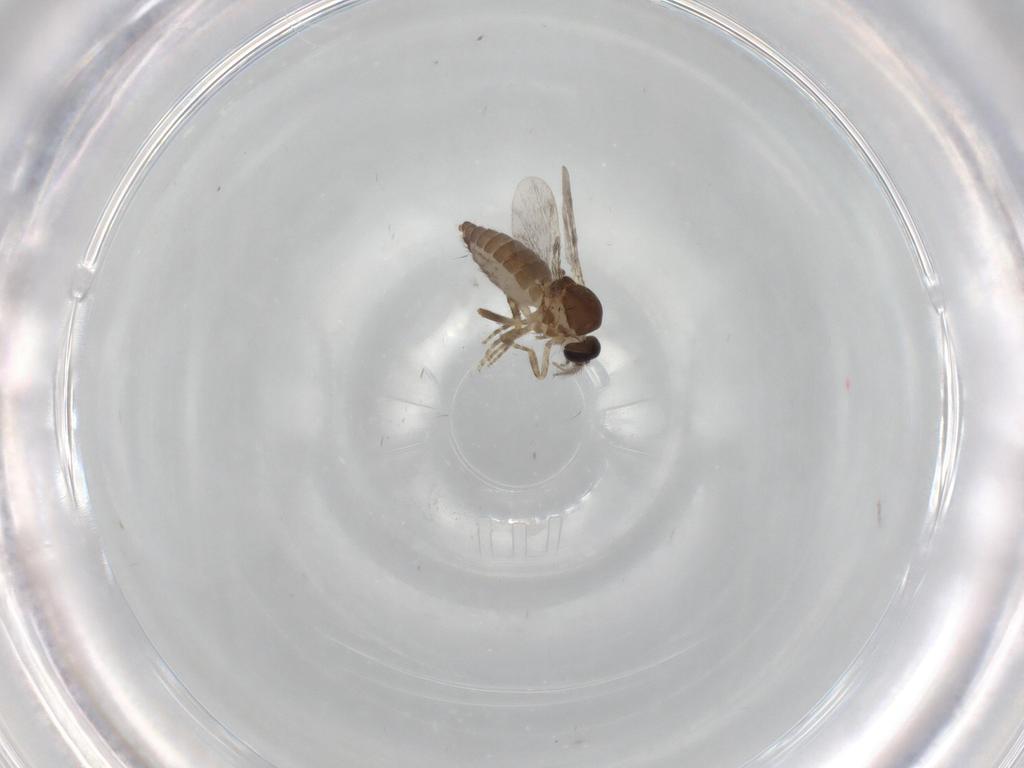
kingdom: Animalia
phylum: Arthropoda
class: Insecta
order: Diptera
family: Ceratopogonidae
